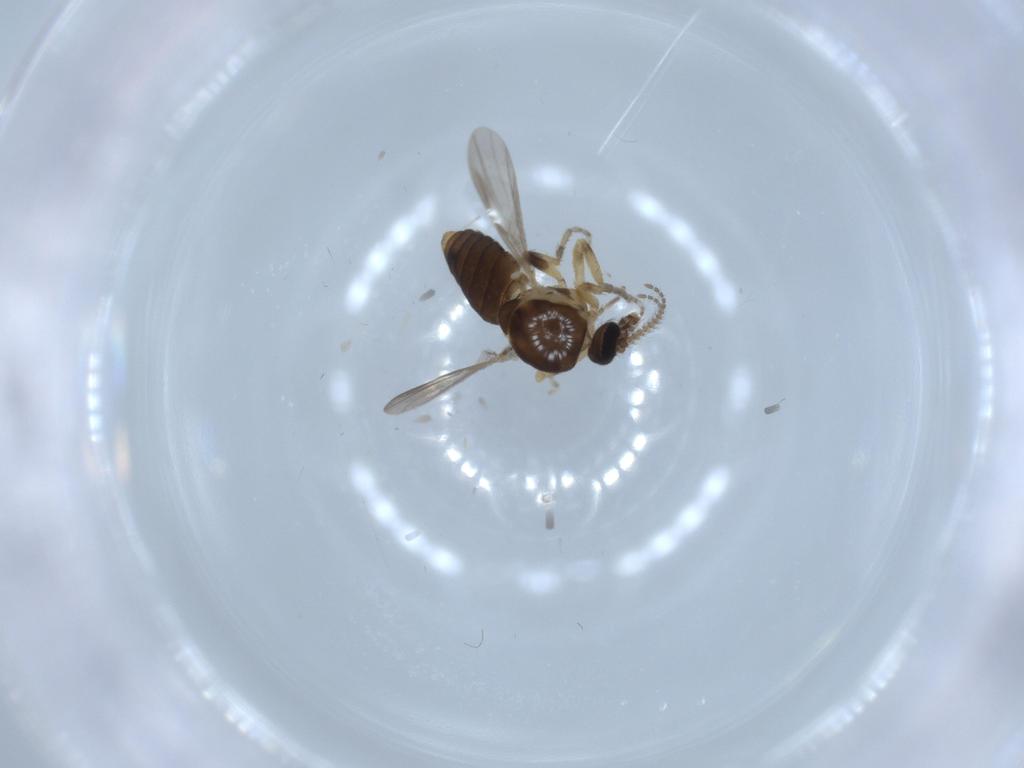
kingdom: Animalia
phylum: Arthropoda
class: Insecta
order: Diptera
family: Ceratopogonidae
